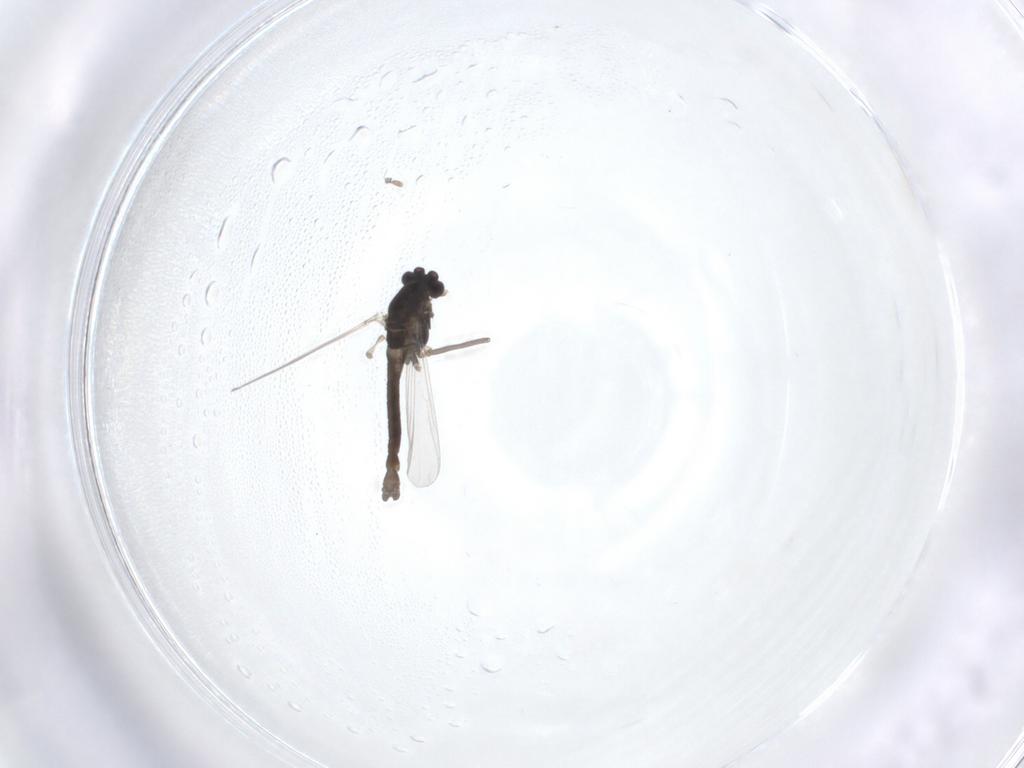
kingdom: Animalia
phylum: Arthropoda
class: Insecta
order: Diptera
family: Chironomidae
